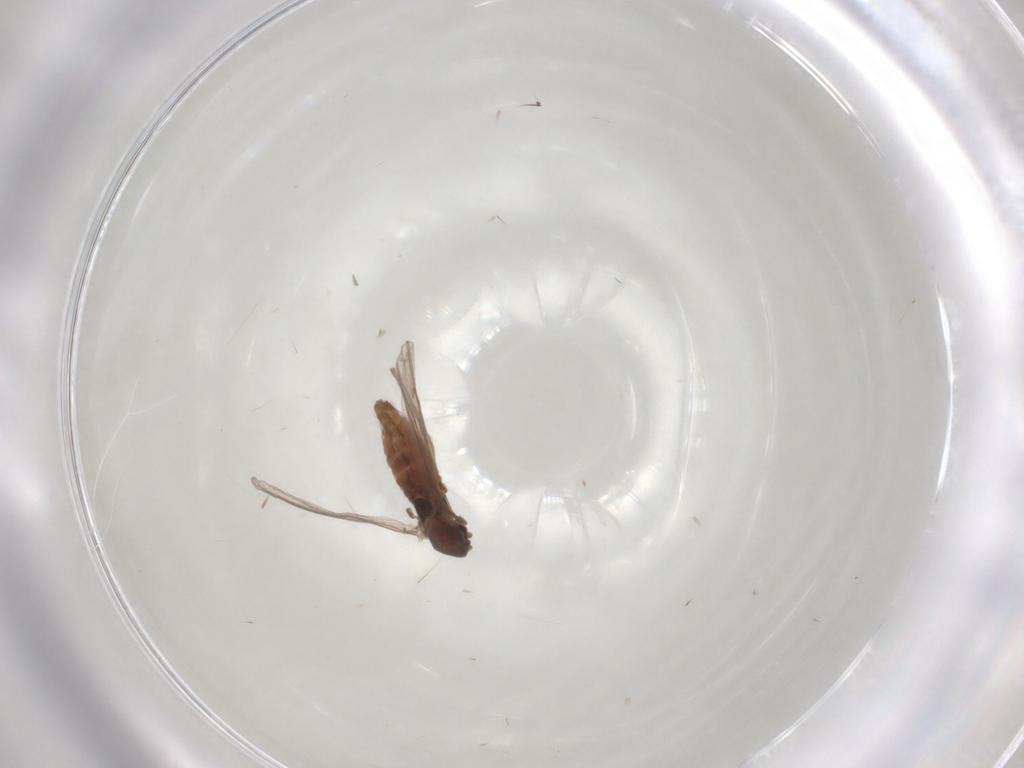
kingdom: Animalia
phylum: Arthropoda
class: Insecta
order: Diptera
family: Chironomidae
